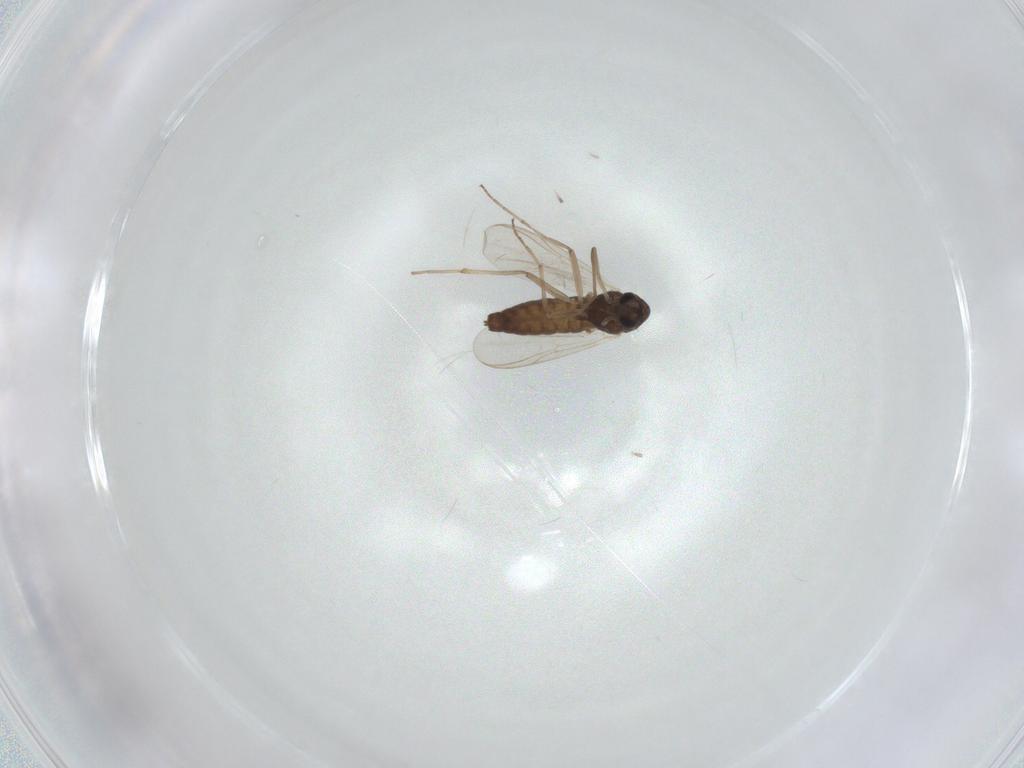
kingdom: Animalia
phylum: Arthropoda
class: Insecta
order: Diptera
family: Chironomidae
